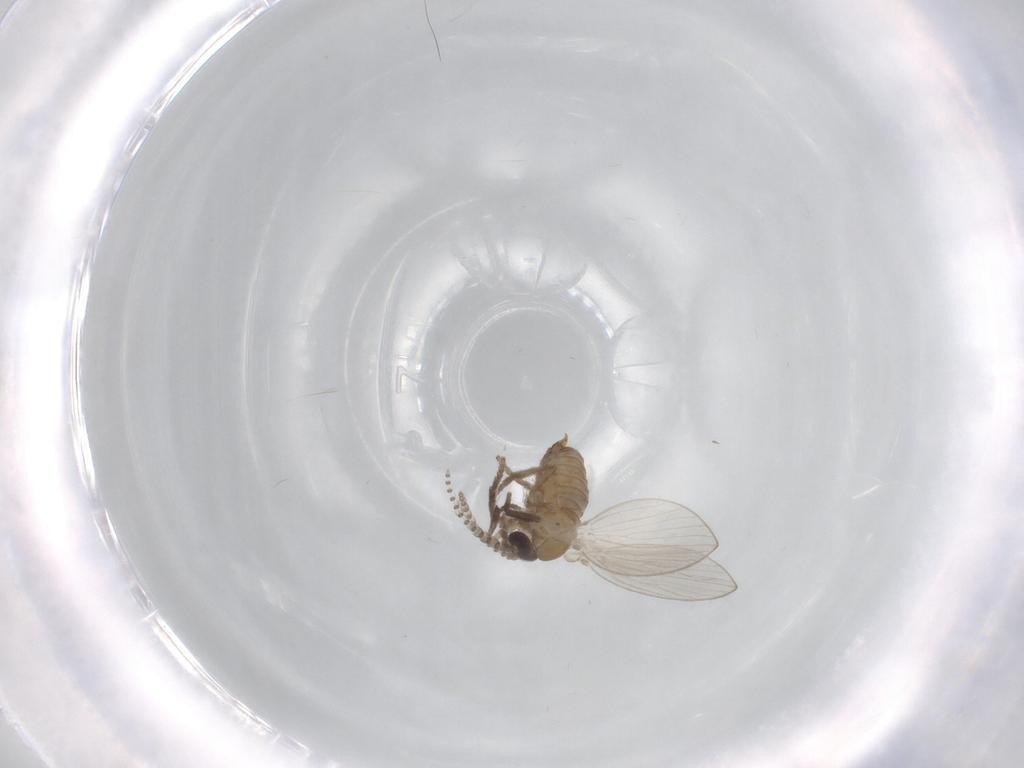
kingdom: Animalia
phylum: Arthropoda
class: Insecta
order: Diptera
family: Psychodidae
